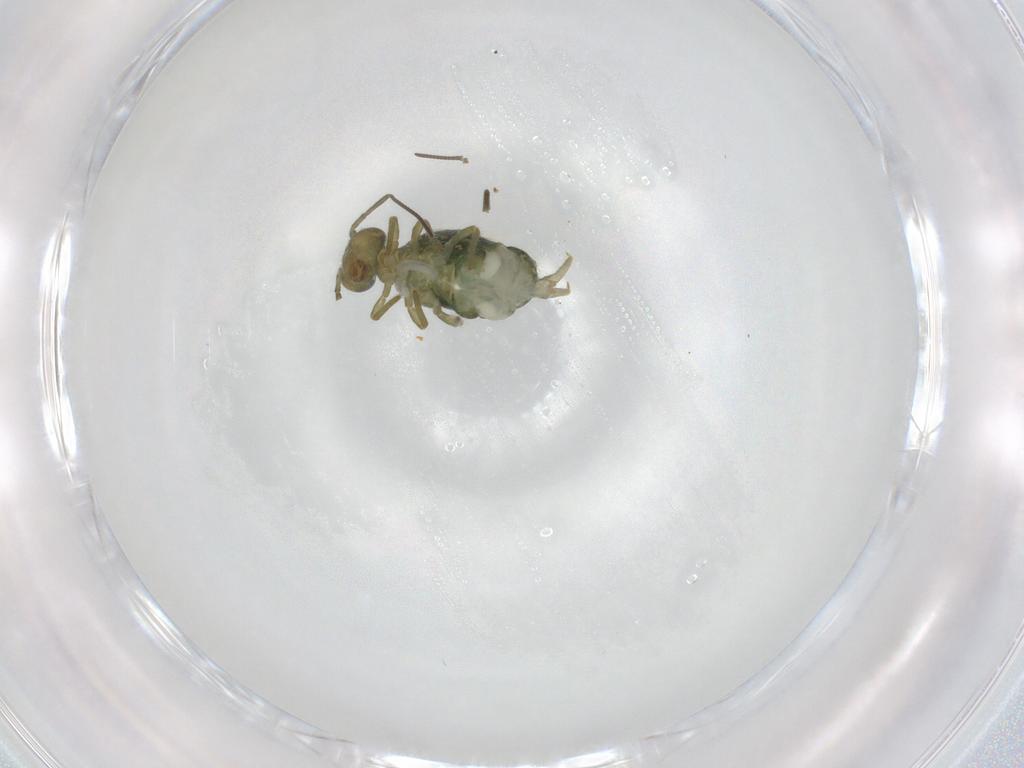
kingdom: Animalia
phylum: Arthropoda
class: Collembola
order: Symphypleona
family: Sminthuridae
